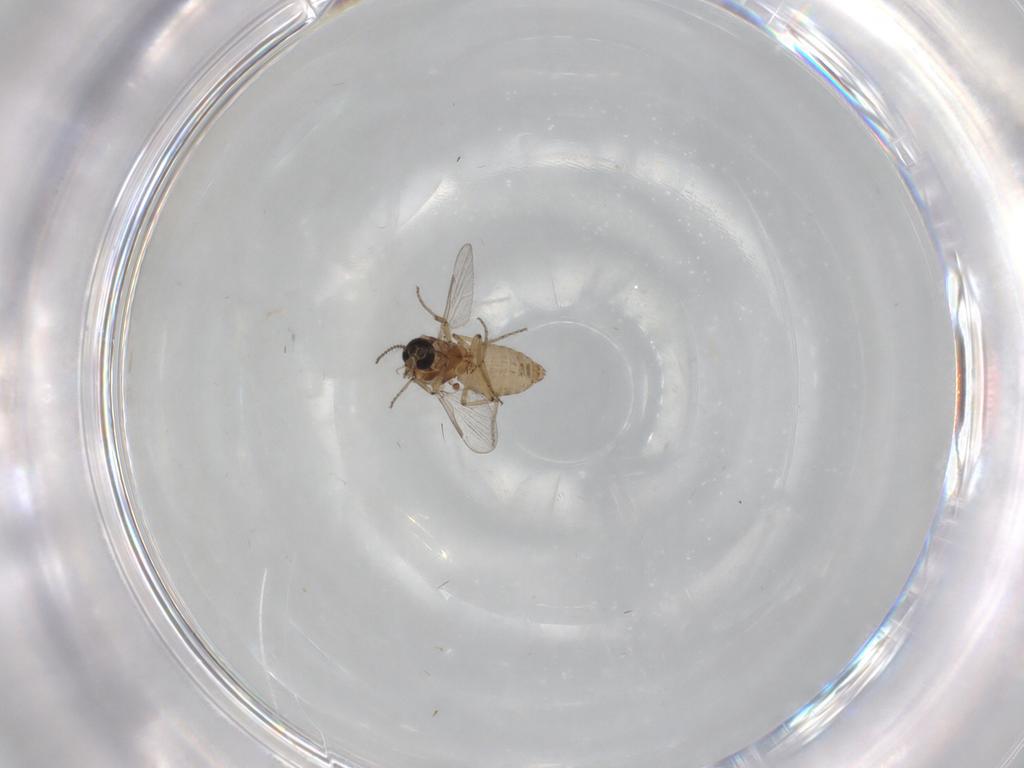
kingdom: Animalia
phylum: Arthropoda
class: Insecta
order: Diptera
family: Ceratopogonidae
